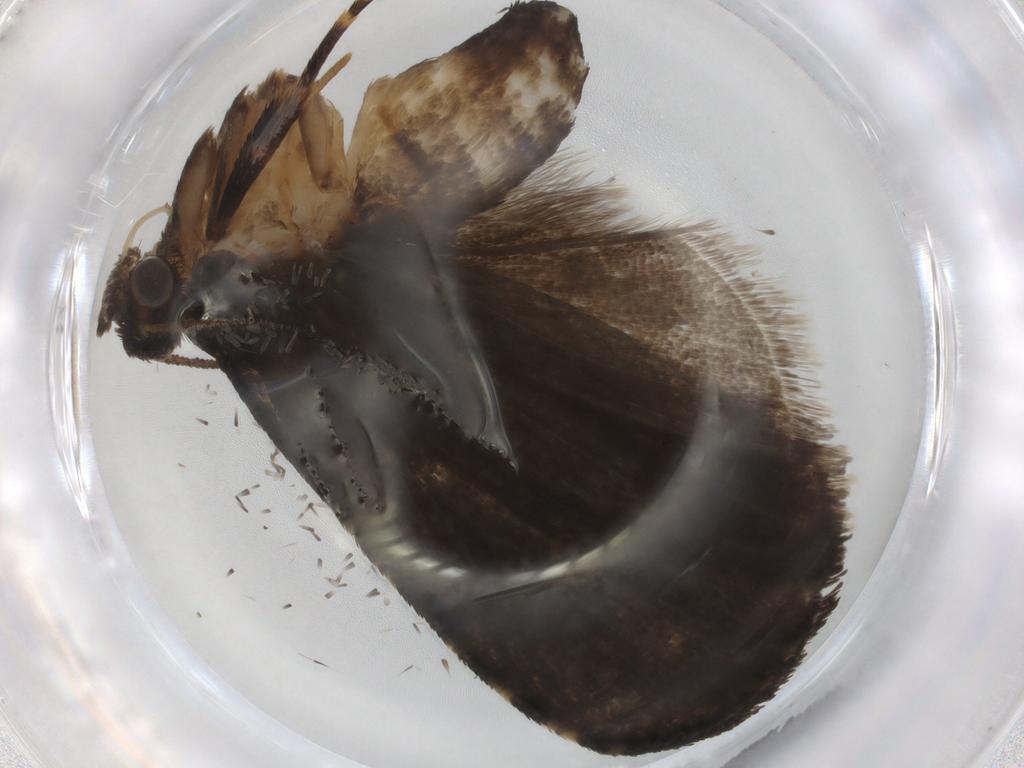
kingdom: Animalia
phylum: Arthropoda
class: Insecta
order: Lepidoptera
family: Tortricidae
